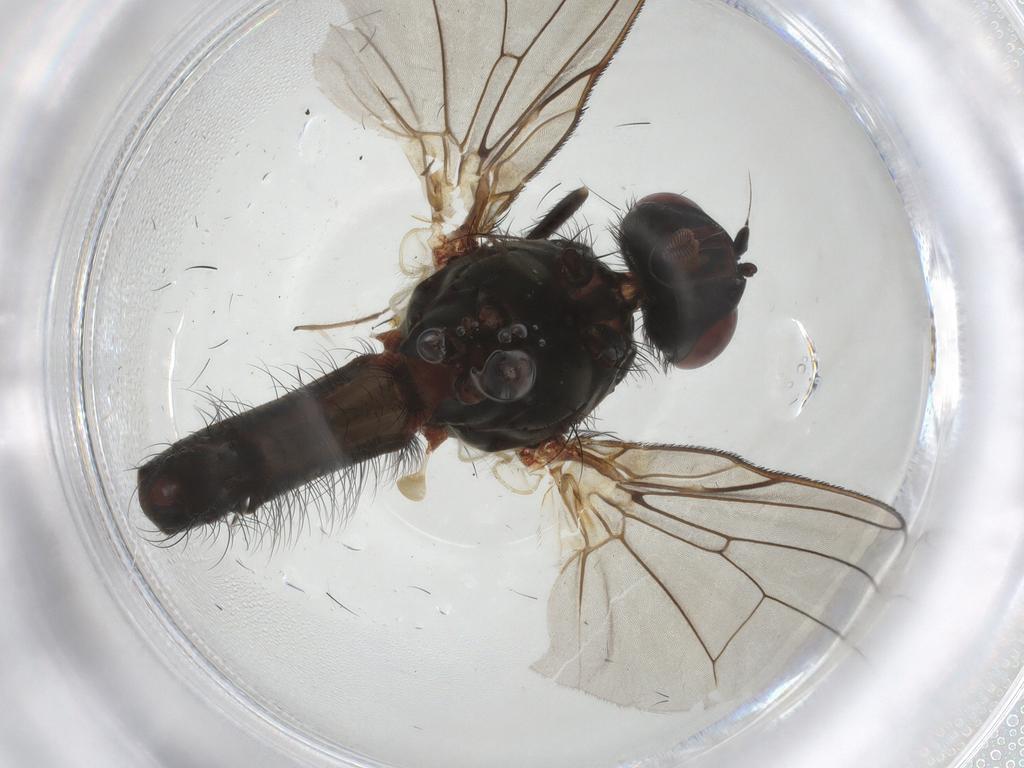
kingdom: Animalia
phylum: Arthropoda
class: Insecta
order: Diptera
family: Anthomyiidae
